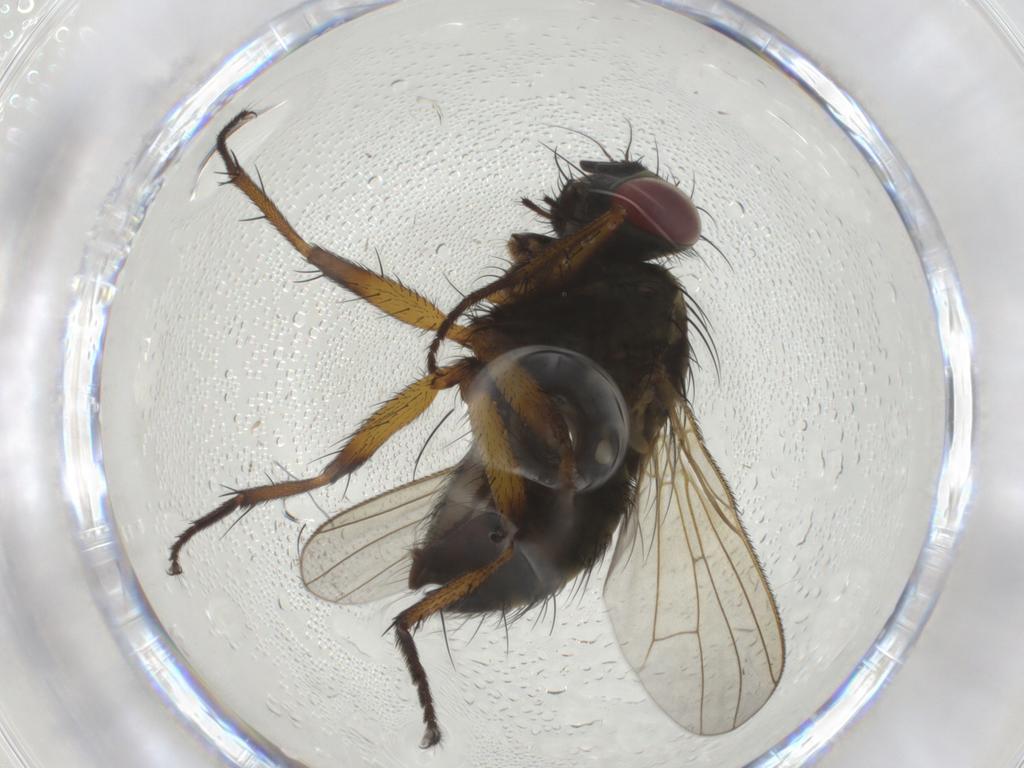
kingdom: Animalia
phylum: Arthropoda
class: Insecta
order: Diptera
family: Muscidae
